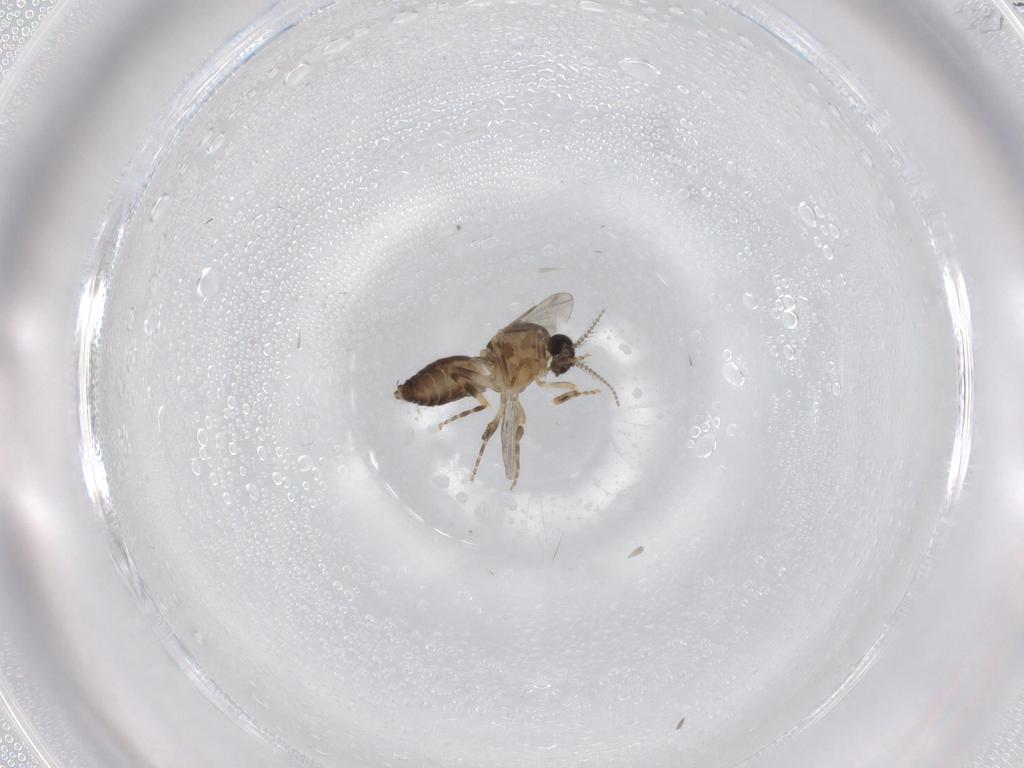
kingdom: Animalia
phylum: Arthropoda
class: Insecta
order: Diptera
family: Ceratopogonidae
